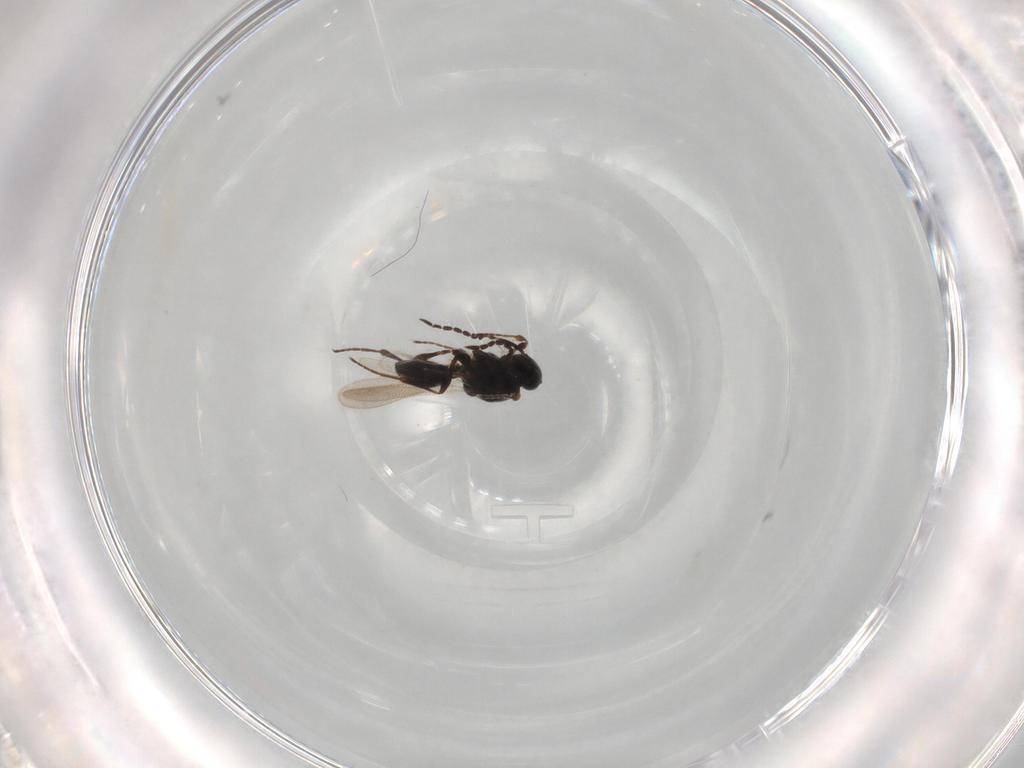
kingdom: Animalia
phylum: Arthropoda
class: Insecta
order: Hymenoptera
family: Platygastridae
